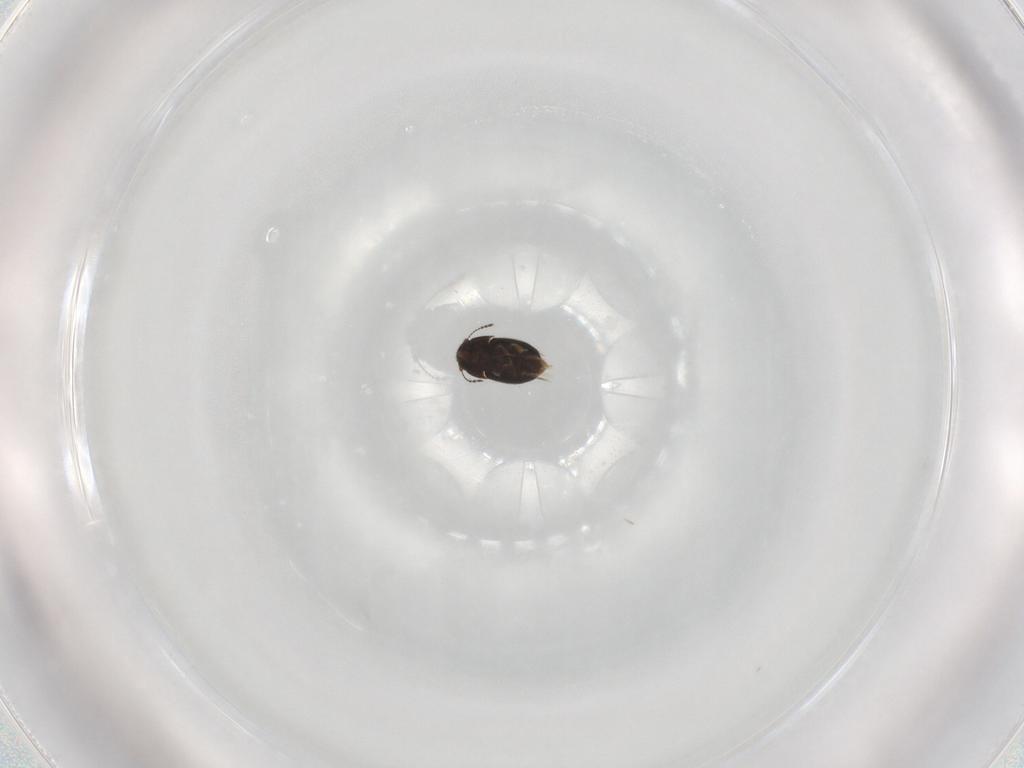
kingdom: Animalia
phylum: Arthropoda
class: Insecta
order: Coleoptera
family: Ptiliidae
